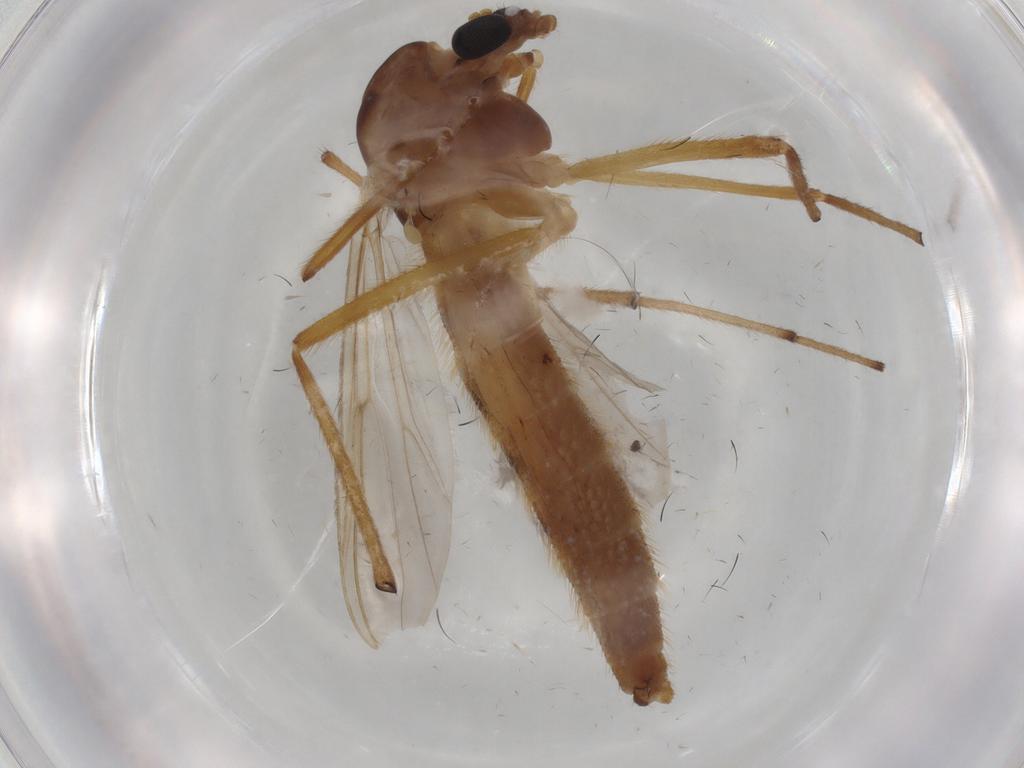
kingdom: Animalia
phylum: Arthropoda
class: Insecta
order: Diptera
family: Chironomidae
